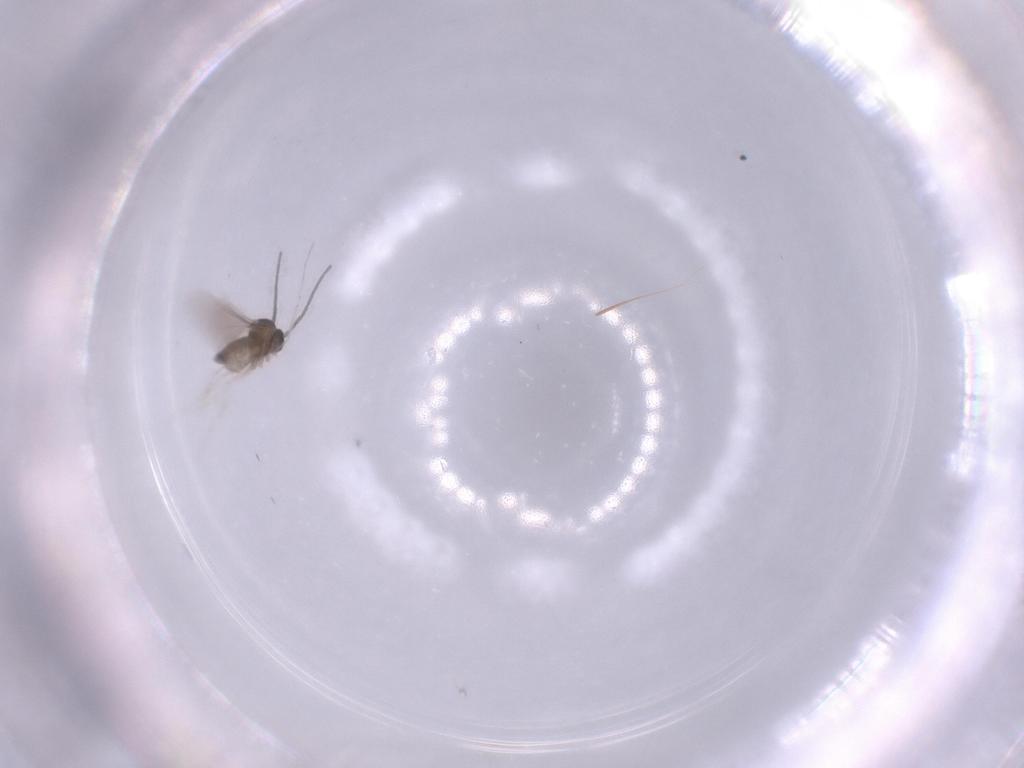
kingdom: Animalia
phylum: Arthropoda
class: Insecta
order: Diptera
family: Cecidomyiidae
